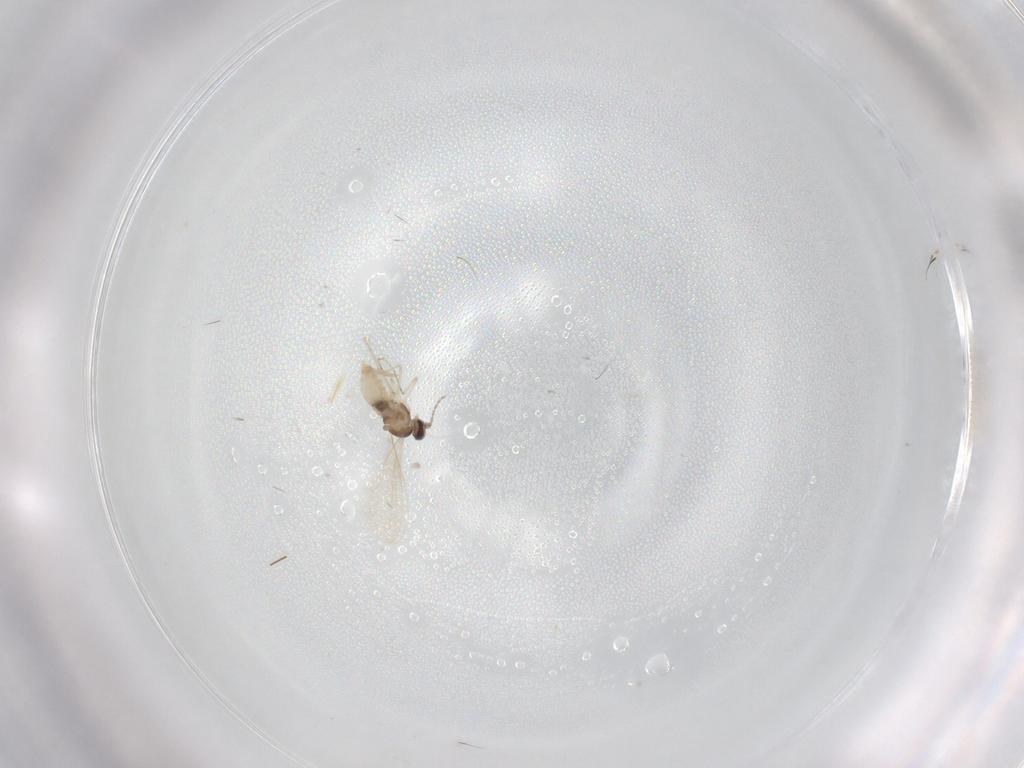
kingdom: Animalia
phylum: Arthropoda
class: Insecta
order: Diptera
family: Cecidomyiidae
